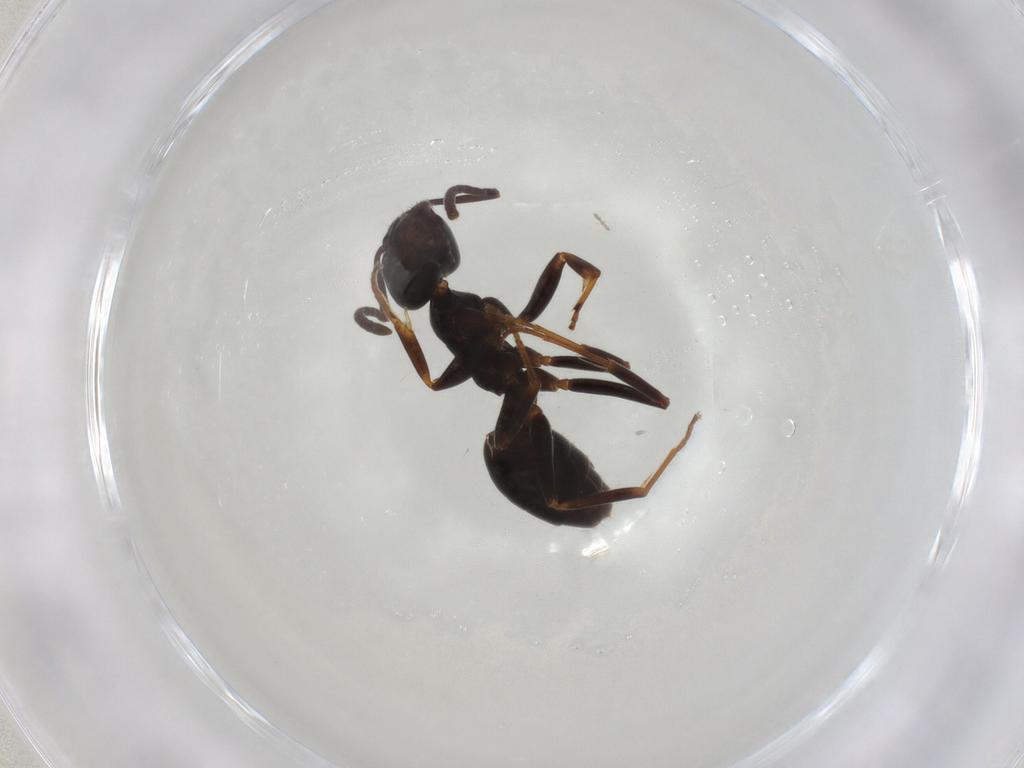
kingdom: Animalia
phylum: Arthropoda
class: Insecta
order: Hymenoptera
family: Formicidae
